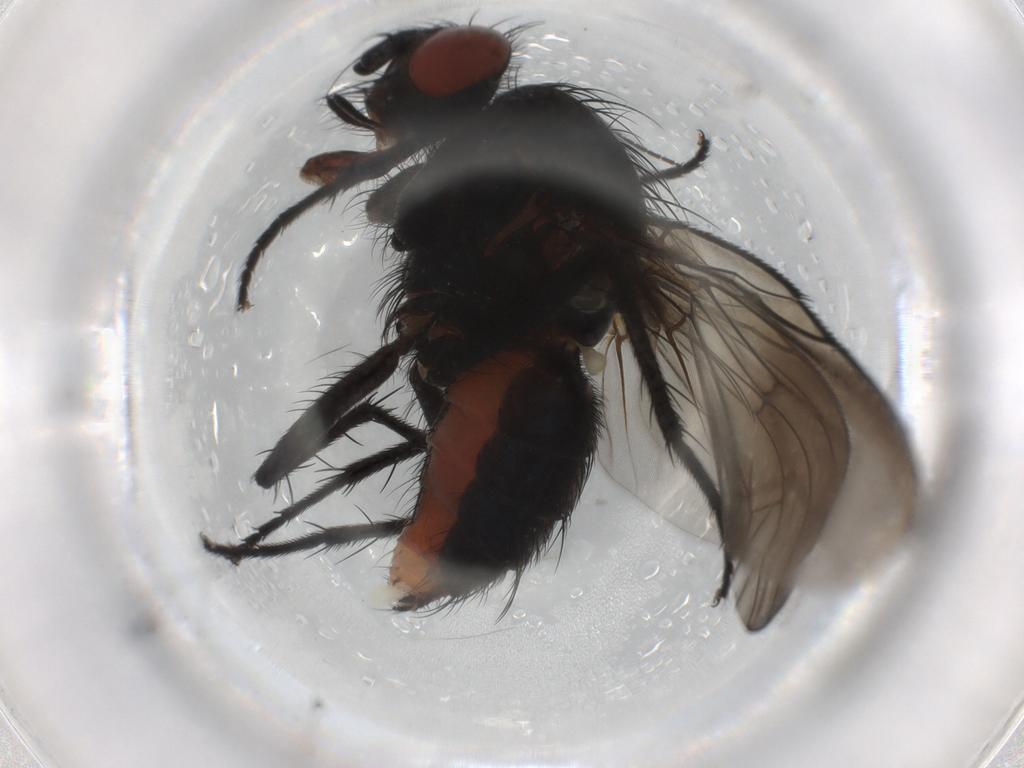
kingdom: Animalia
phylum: Arthropoda
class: Insecta
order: Diptera
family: Anthomyiidae
